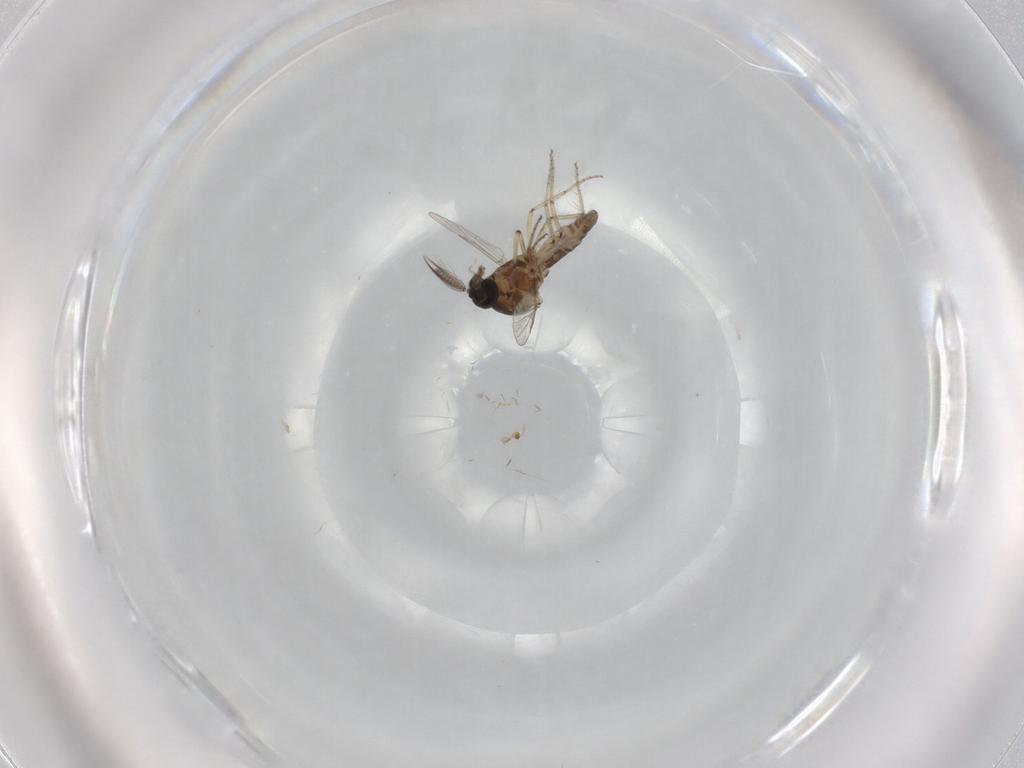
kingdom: Animalia
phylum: Arthropoda
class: Insecta
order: Diptera
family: Ceratopogonidae
